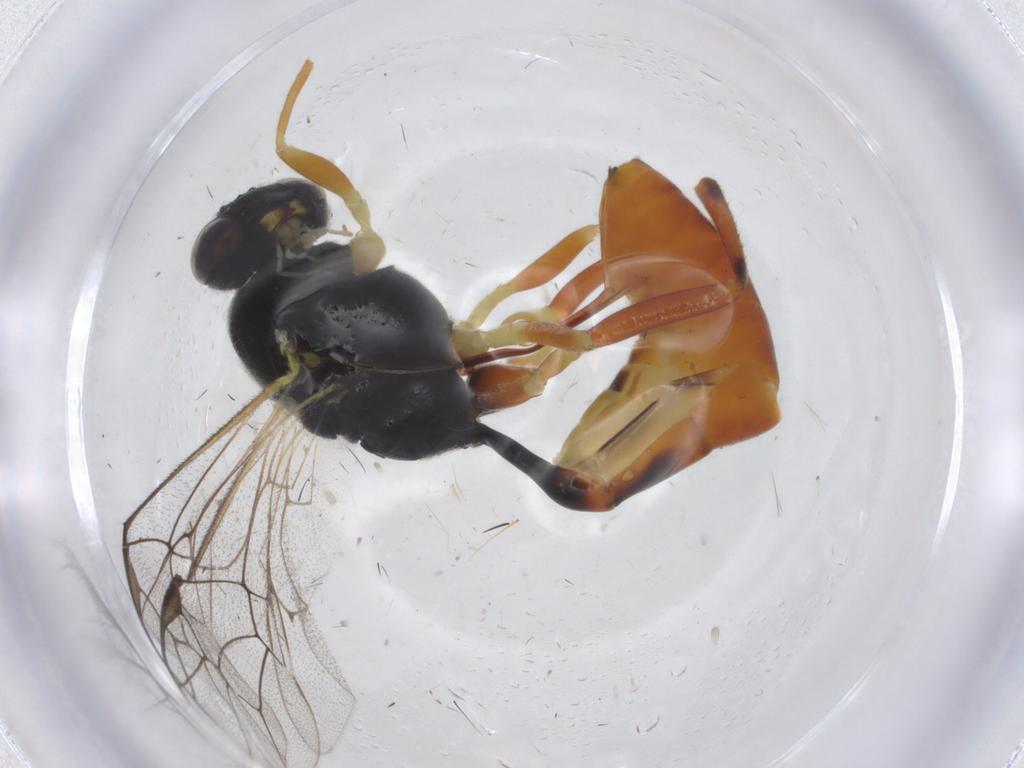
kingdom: Animalia
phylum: Arthropoda
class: Insecta
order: Hymenoptera
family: Ichneumonidae
